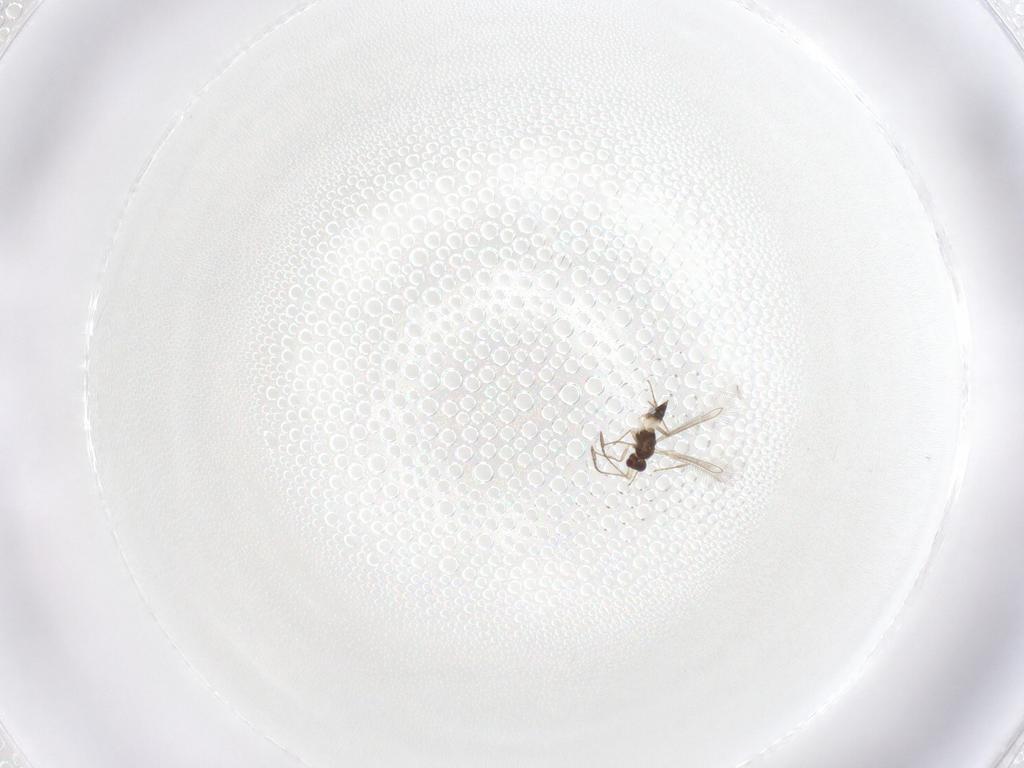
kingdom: Animalia
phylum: Arthropoda
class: Insecta
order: Hymenoptera
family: Mymaridae
